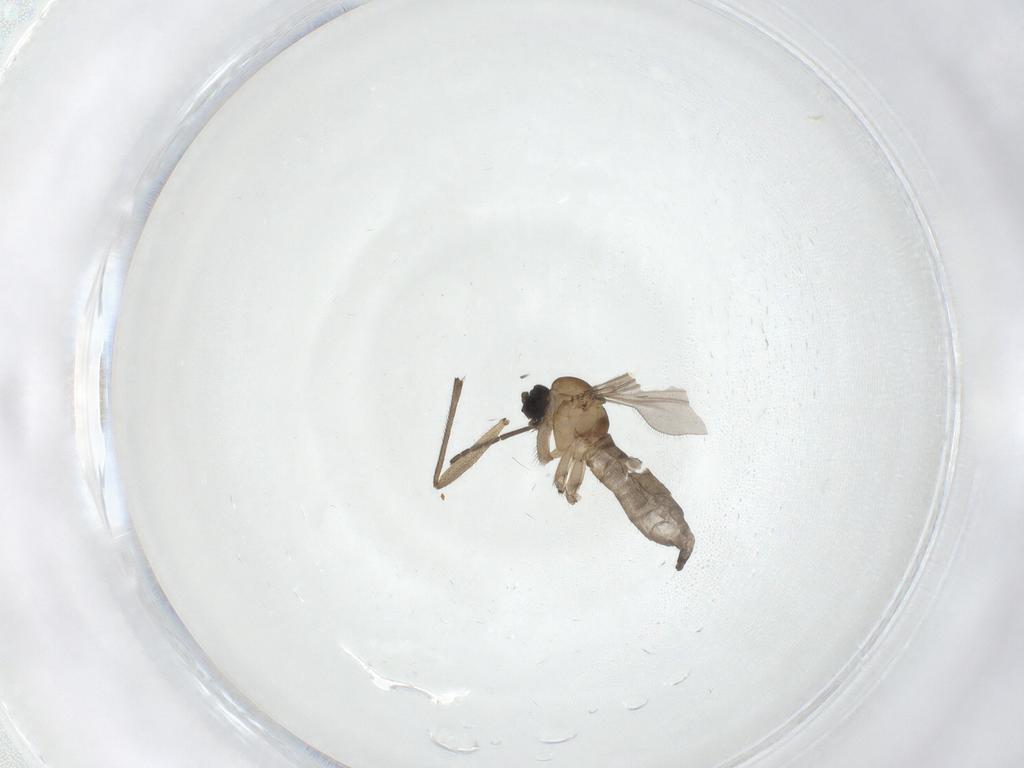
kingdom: Animalia
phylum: Arthropoda
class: Insecta
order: Diptera
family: Sciaridae
